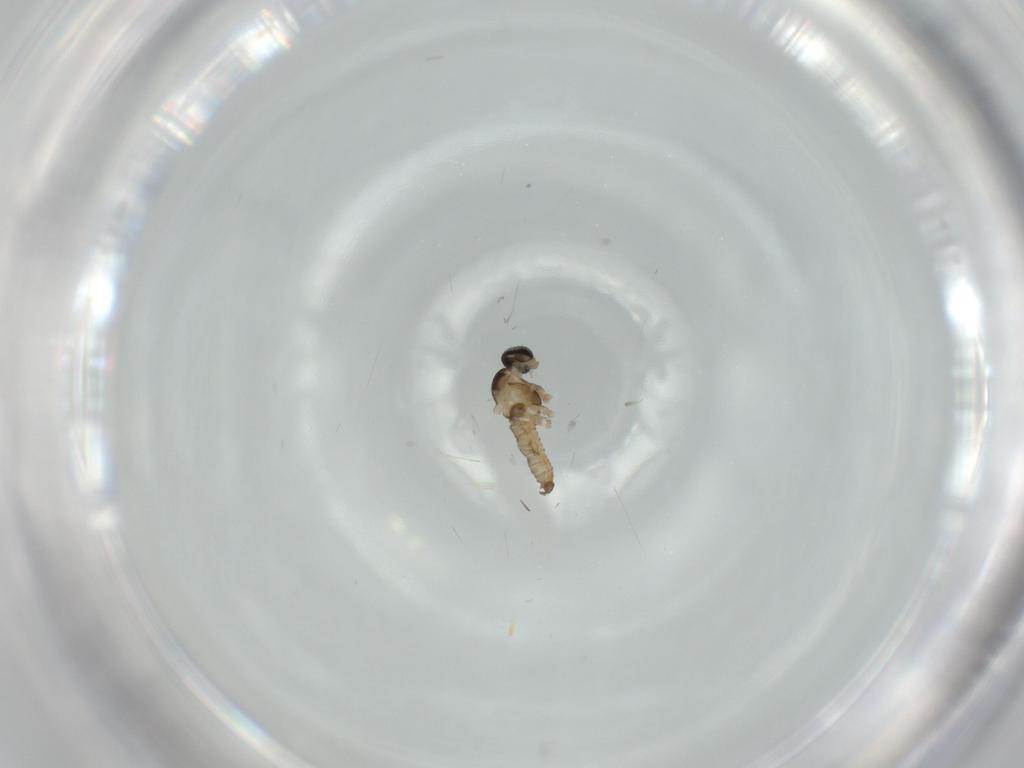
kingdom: Animalia
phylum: Arthropoda
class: Insecta
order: Diptera
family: Cecidomyiidae
